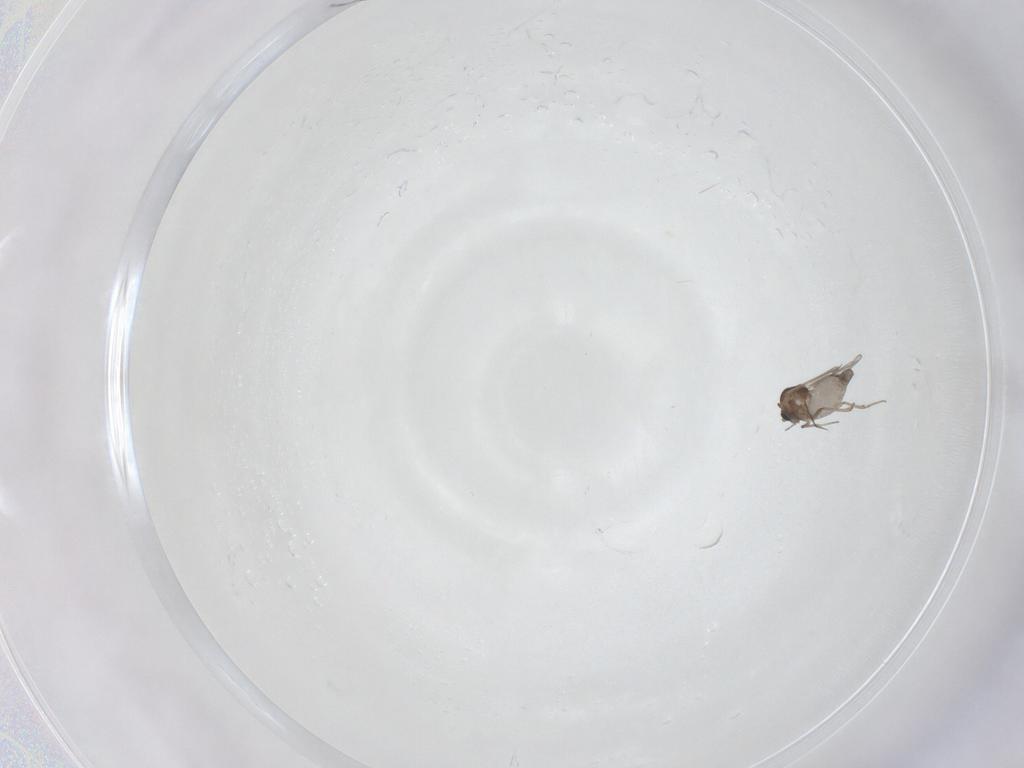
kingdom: Animalia
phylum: Arthropoda
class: Insecta
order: Diptera
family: Ceratopogonidae
